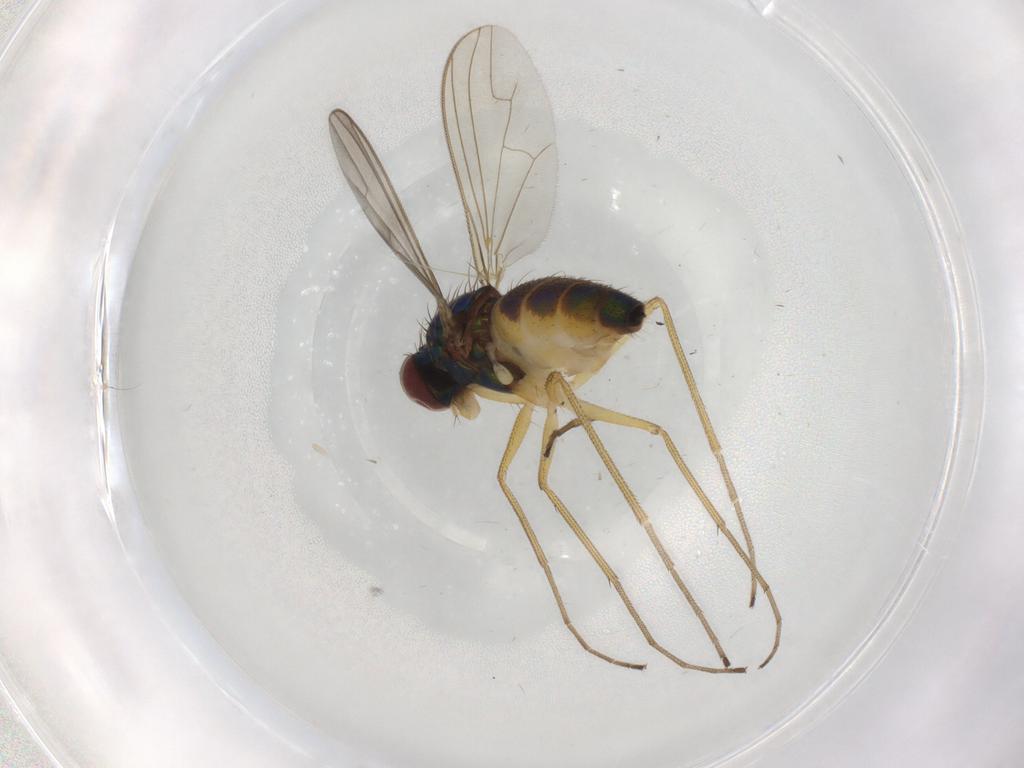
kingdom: Animalia
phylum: Arthropoda
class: Insecta
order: Diptera
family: Dolichopodidae
